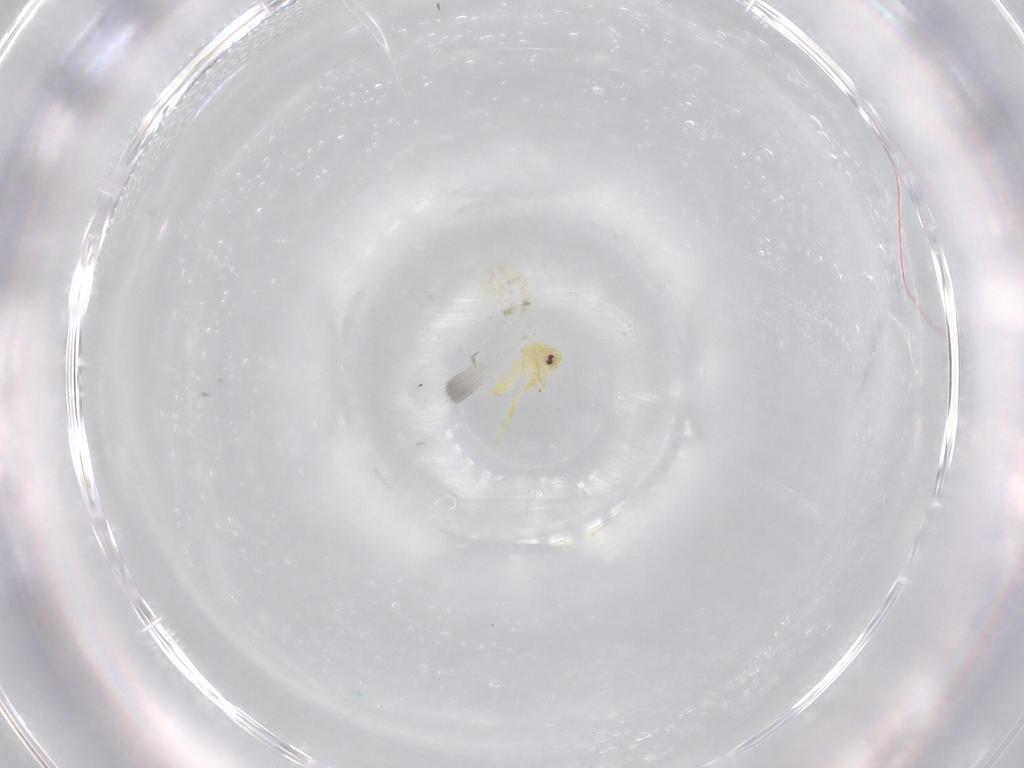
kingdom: Animalia
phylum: Arthropoda
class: Insecta
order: Hemiptera
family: Aleyrodidae
